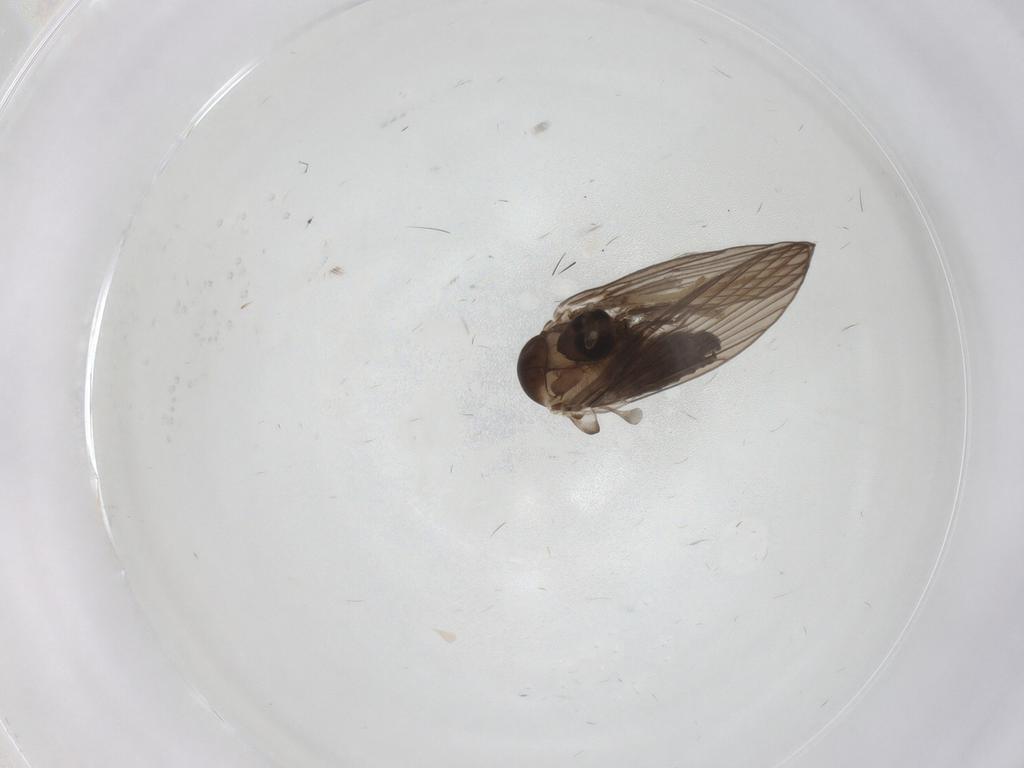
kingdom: Animalia
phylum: Arthropoda
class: Insecta
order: Diptera
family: Psychodidae
